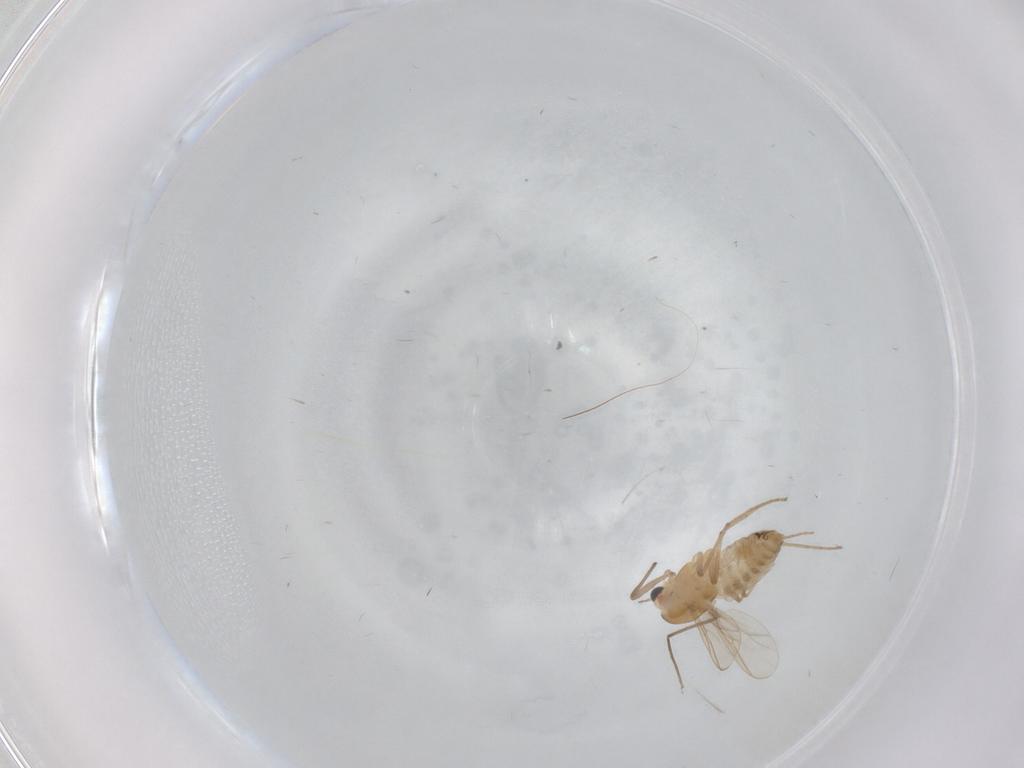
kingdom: Animalia
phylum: Arthropoda
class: Insecta
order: Diptera
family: Chironomidae
